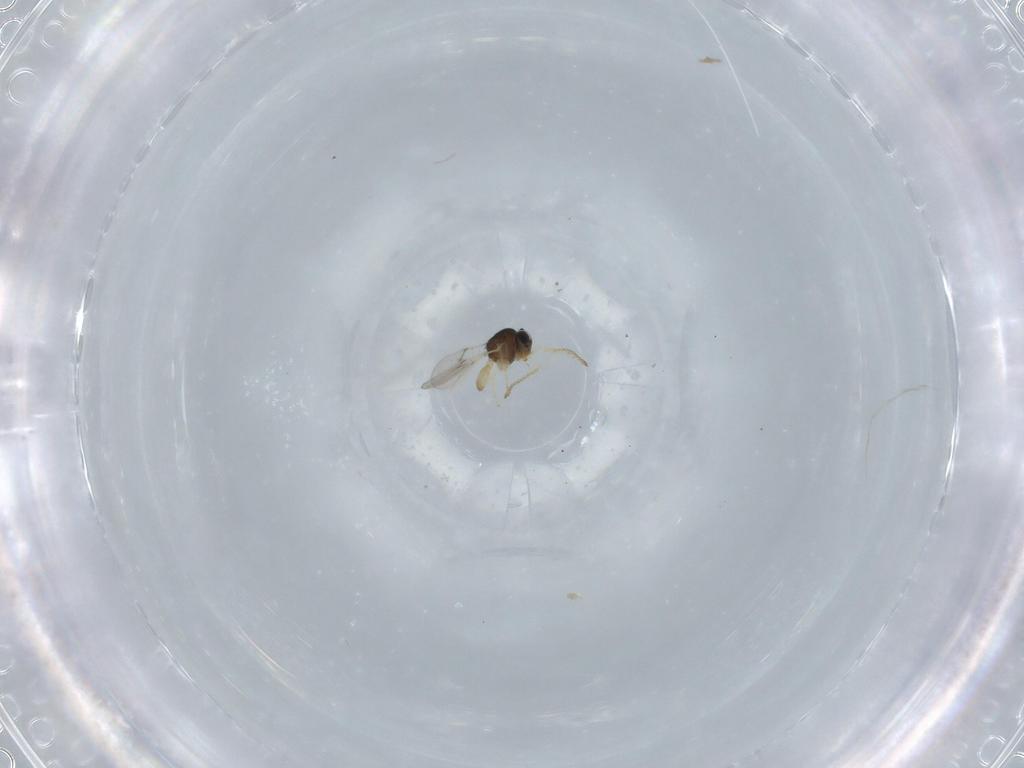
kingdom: Animalia
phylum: Arthropoda
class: Insecta
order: Hymenoptera
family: Scelionidae
